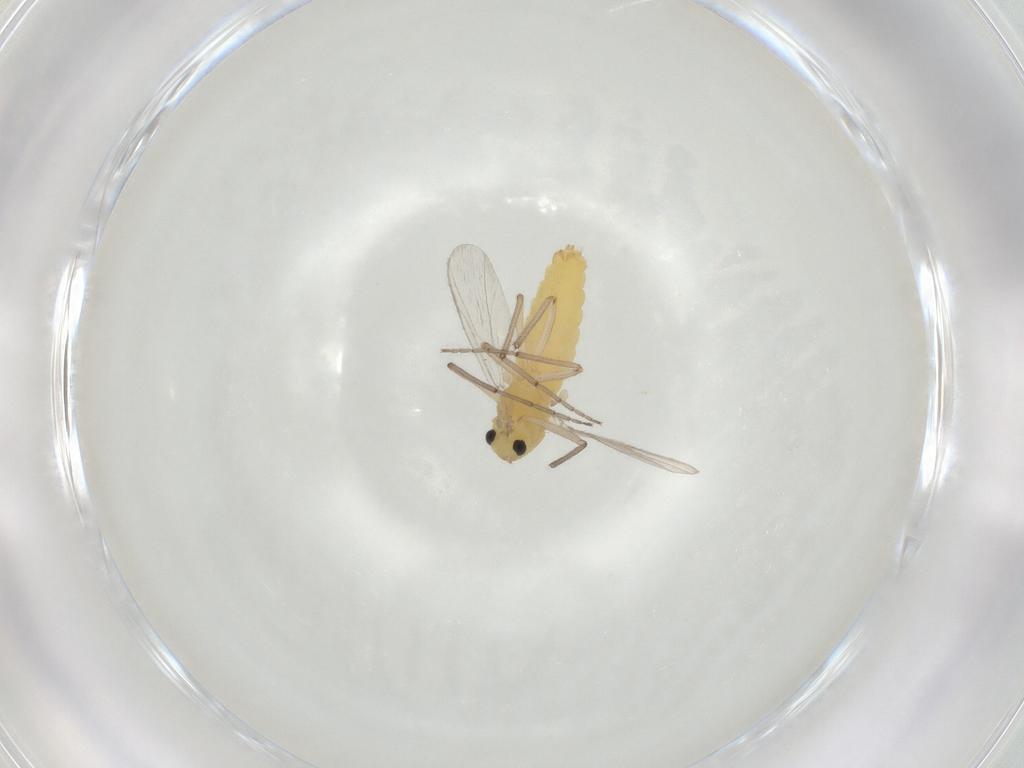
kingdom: Animalia
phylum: Arthropoda
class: Insecta
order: Diptera
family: Chironomidae
